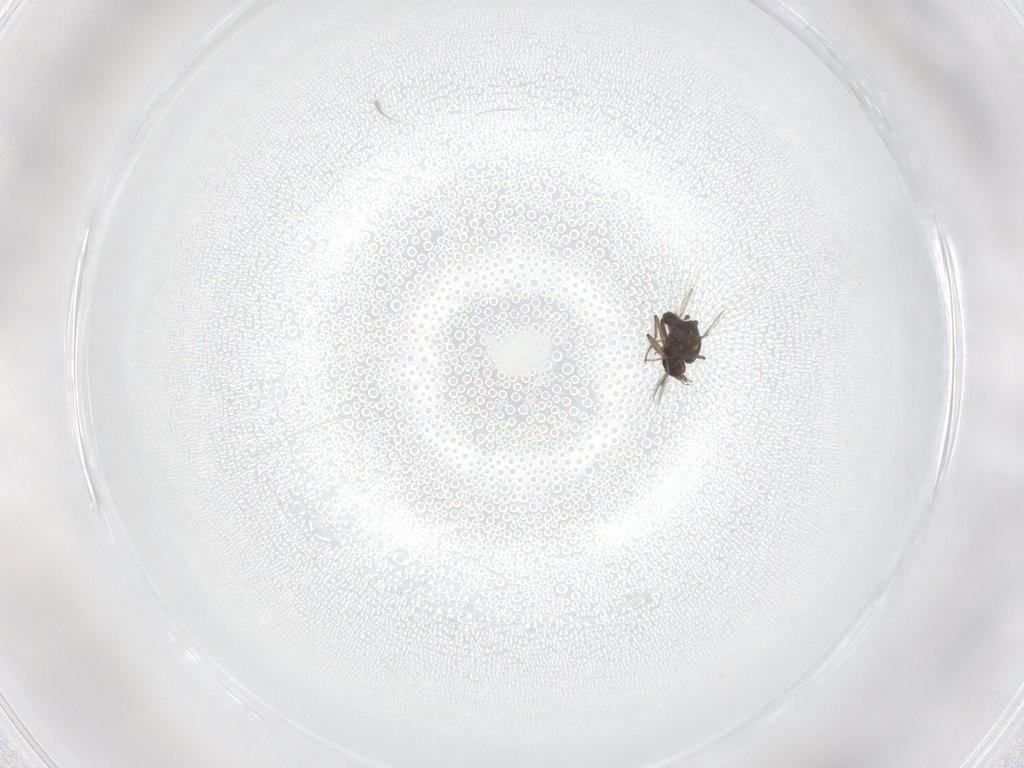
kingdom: Animalia
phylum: Arthropoda
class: Insecta
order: Diptera
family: Ceratopogonidae
